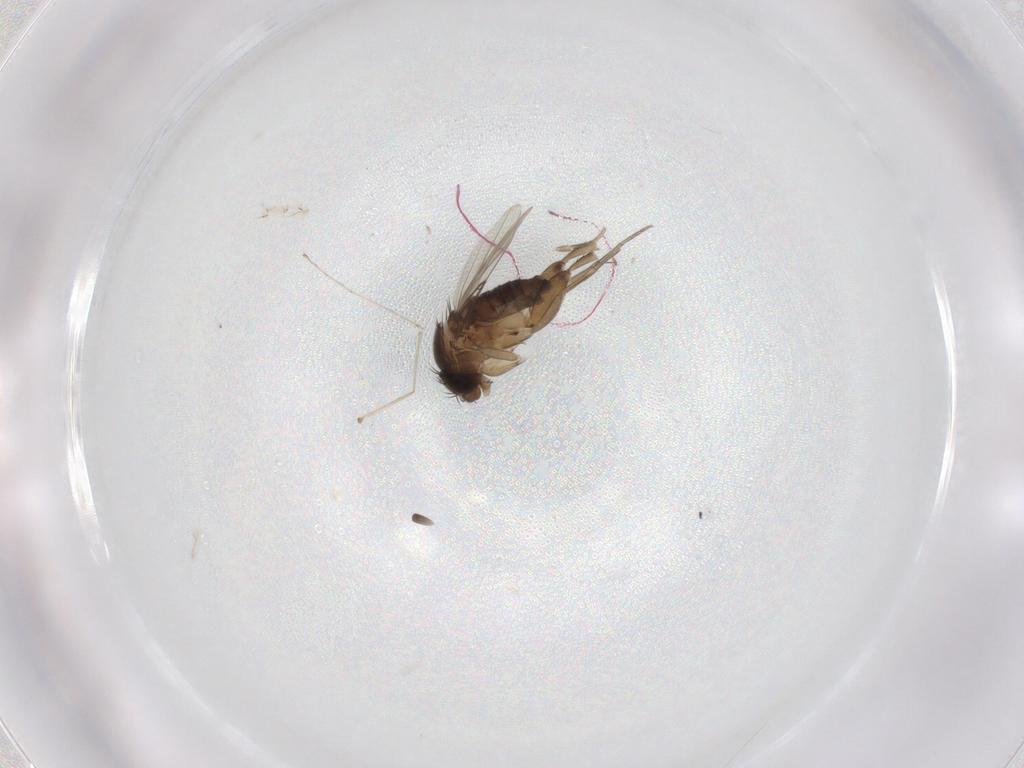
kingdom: Animalia
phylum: Arthropoda
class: Insecta
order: Diptera
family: Phoridae
